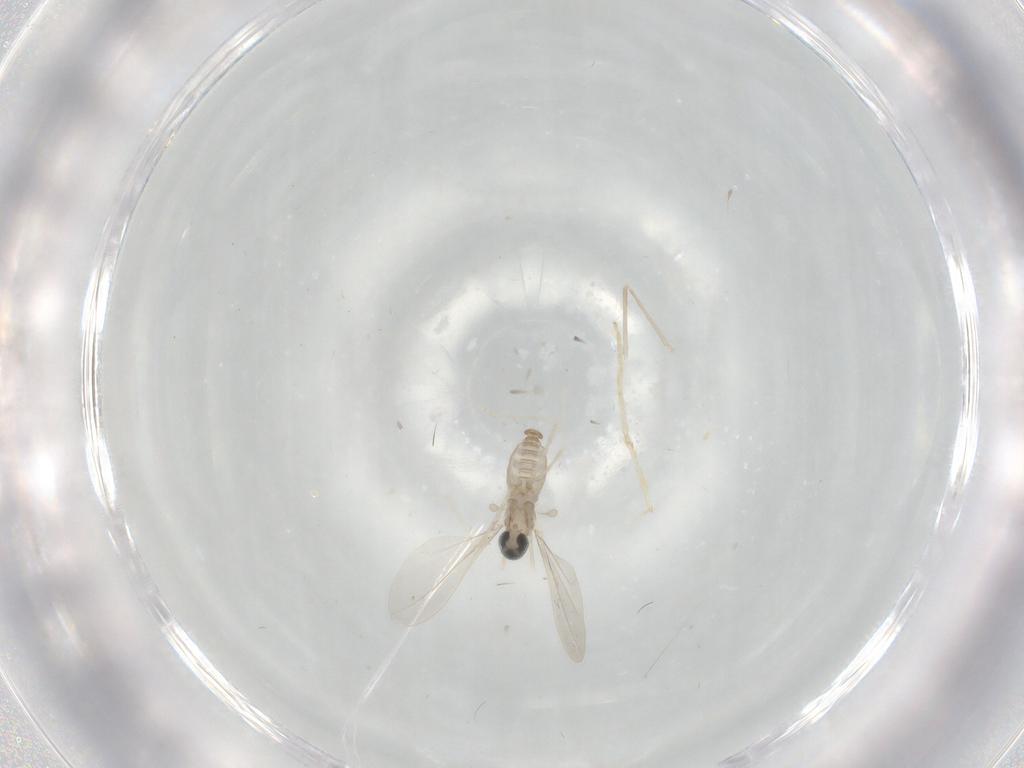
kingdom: Animalia
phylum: Arthropoda
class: Insecta
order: Diptera
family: Cecidomyiidae
